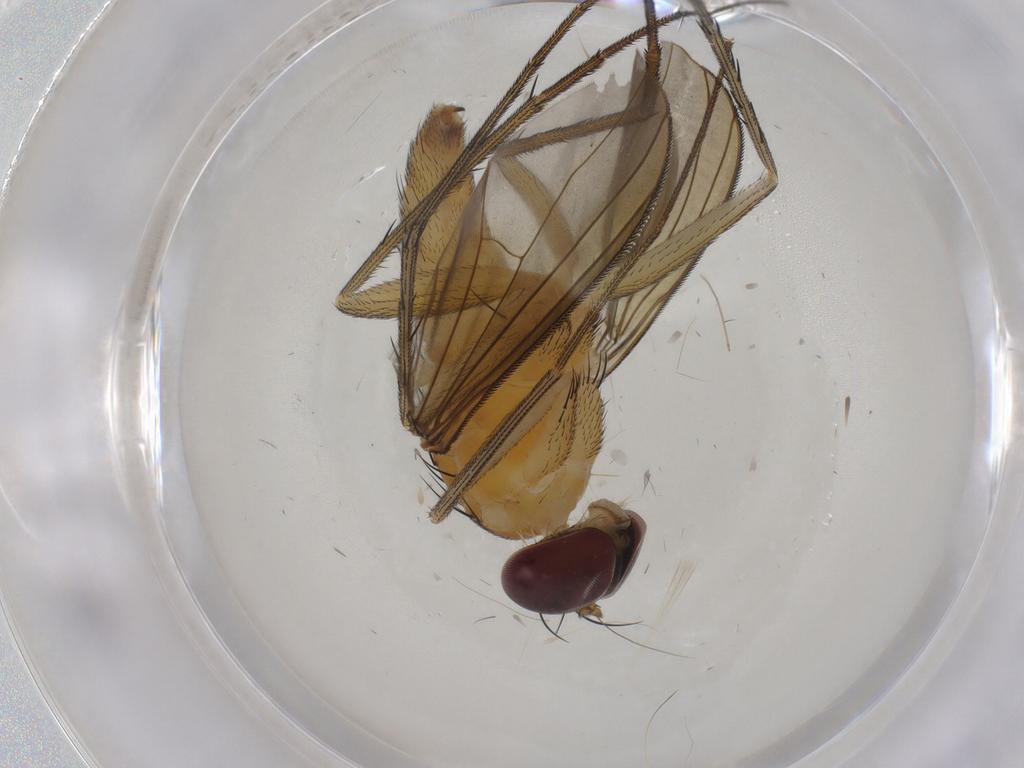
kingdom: Animalia
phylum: Arthropoda
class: Insecta
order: Diptera
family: Dolichopodidae
